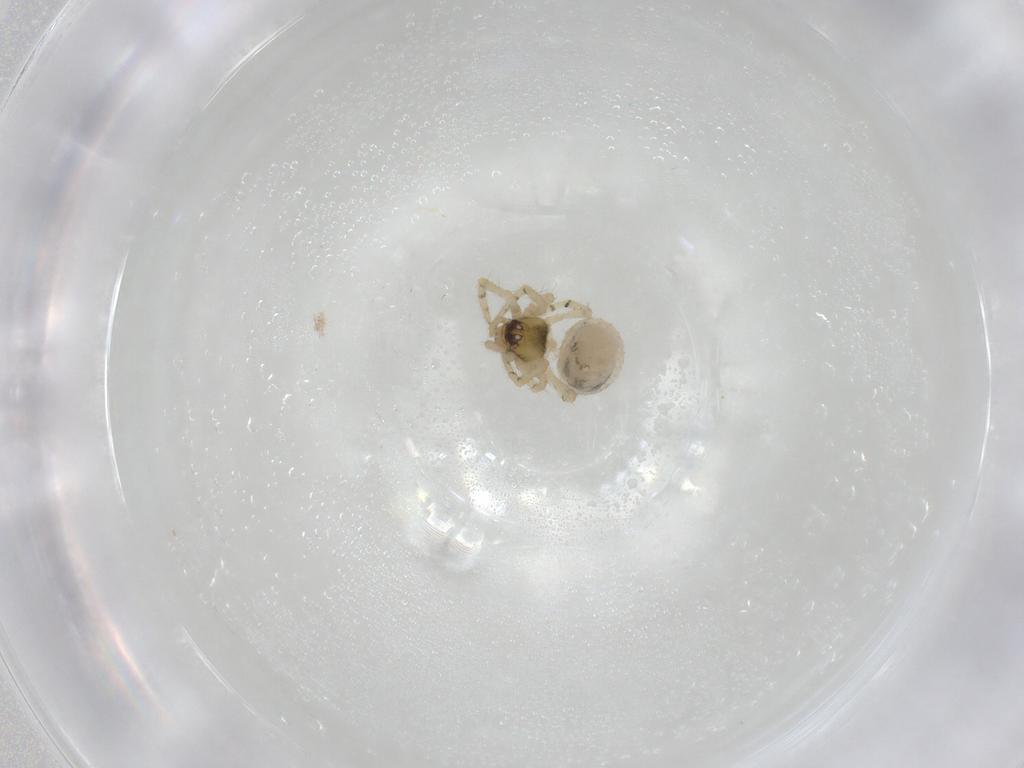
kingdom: Animalia
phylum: Arthropoda
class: Arachnida
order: Araneae
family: Theridiidae
